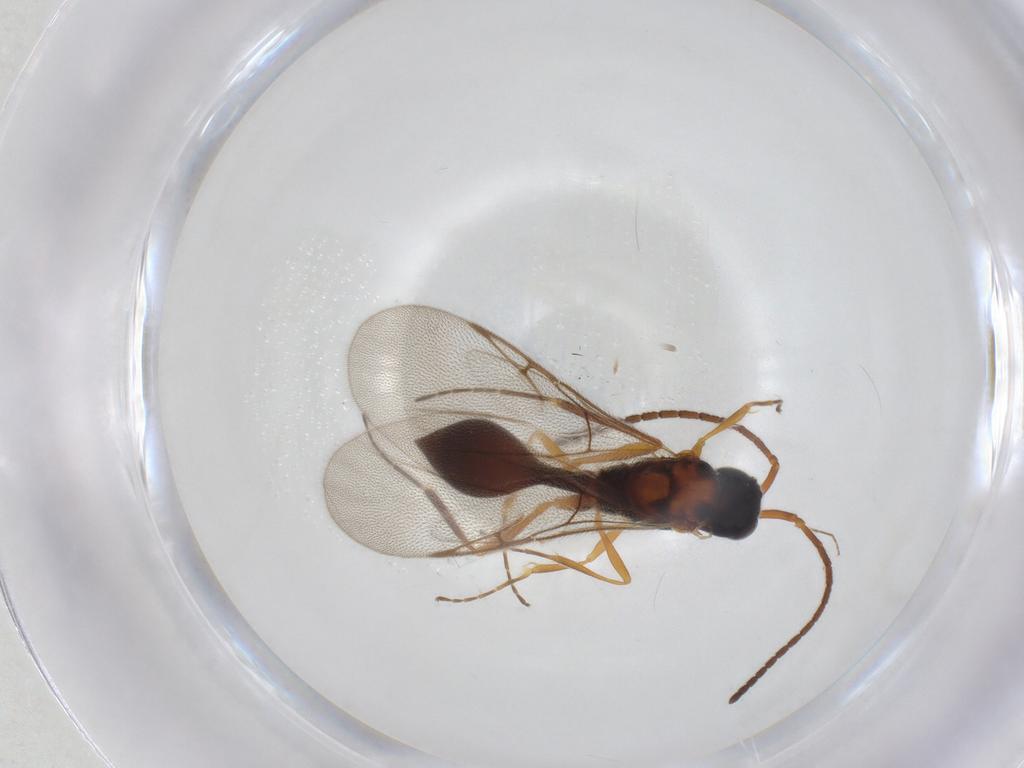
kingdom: Animalia
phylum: Arthropoda
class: Insecta
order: Hymenoptera
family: Diapriidae
